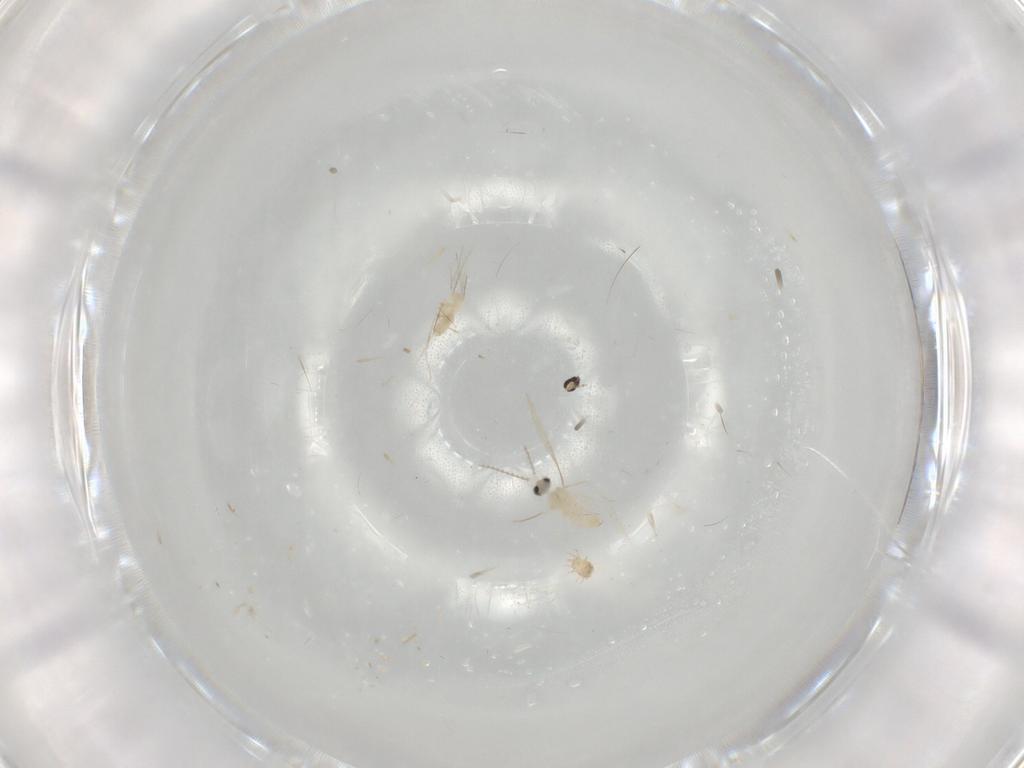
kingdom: Animalia
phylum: Arthropoda
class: Insecta
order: Diptera
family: Cecidomyiidae
